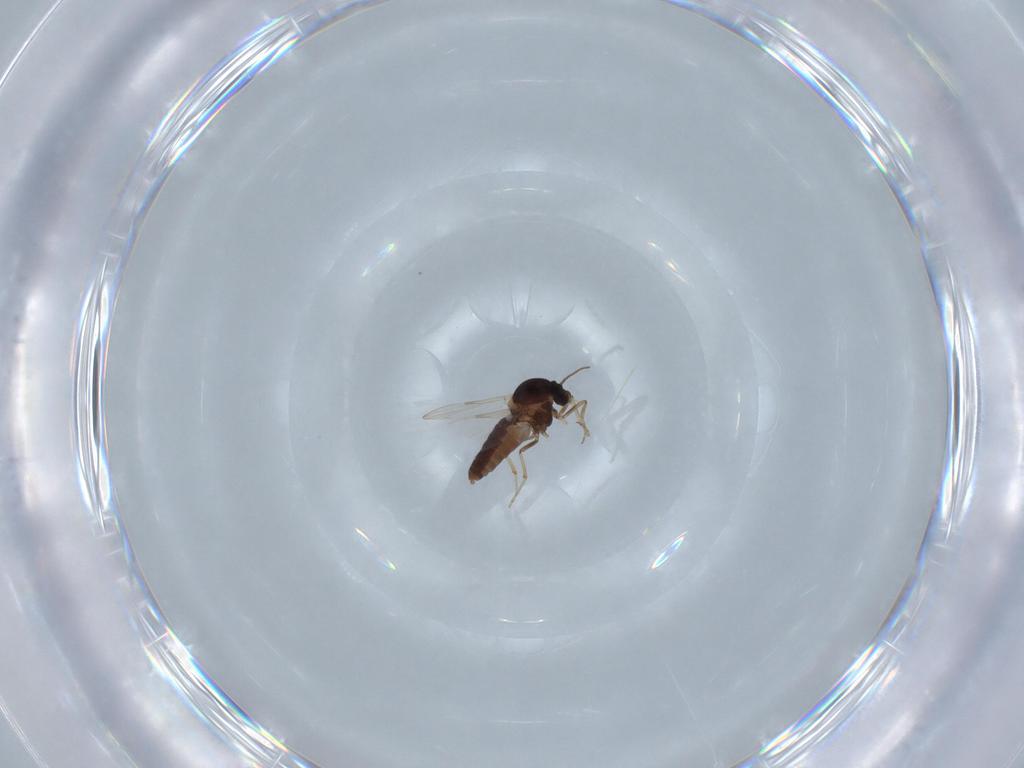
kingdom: Animalia
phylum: Arthropoda
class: Insecta
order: Diptera
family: Ceratopogonidae
